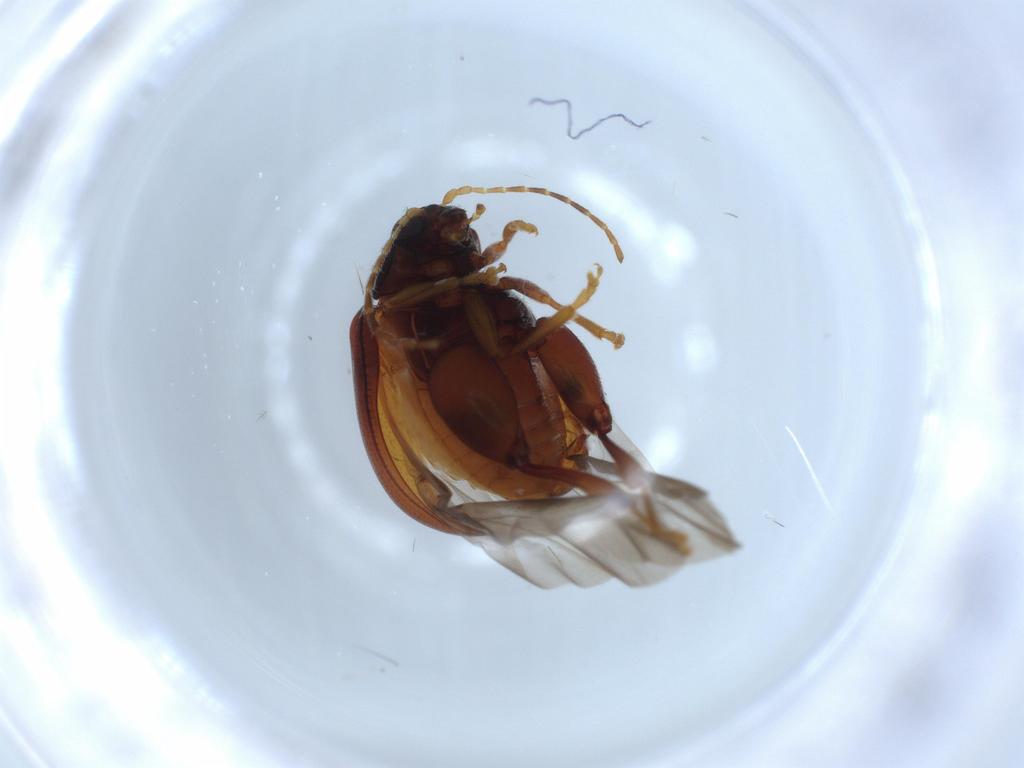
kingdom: Animalia
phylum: Arthropoda
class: Insecta
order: Coleoptera
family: Chrysomelidae
